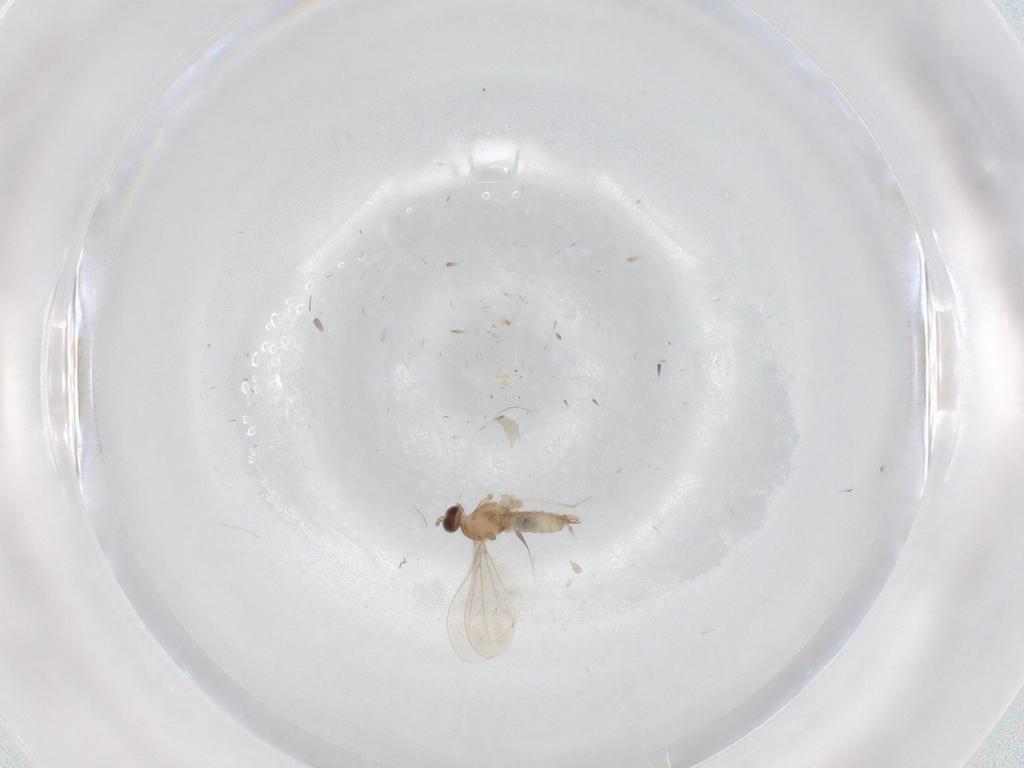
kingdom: Animalia
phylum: Arthropoda
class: Insecta
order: Diptera
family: Cecidomyiidae
